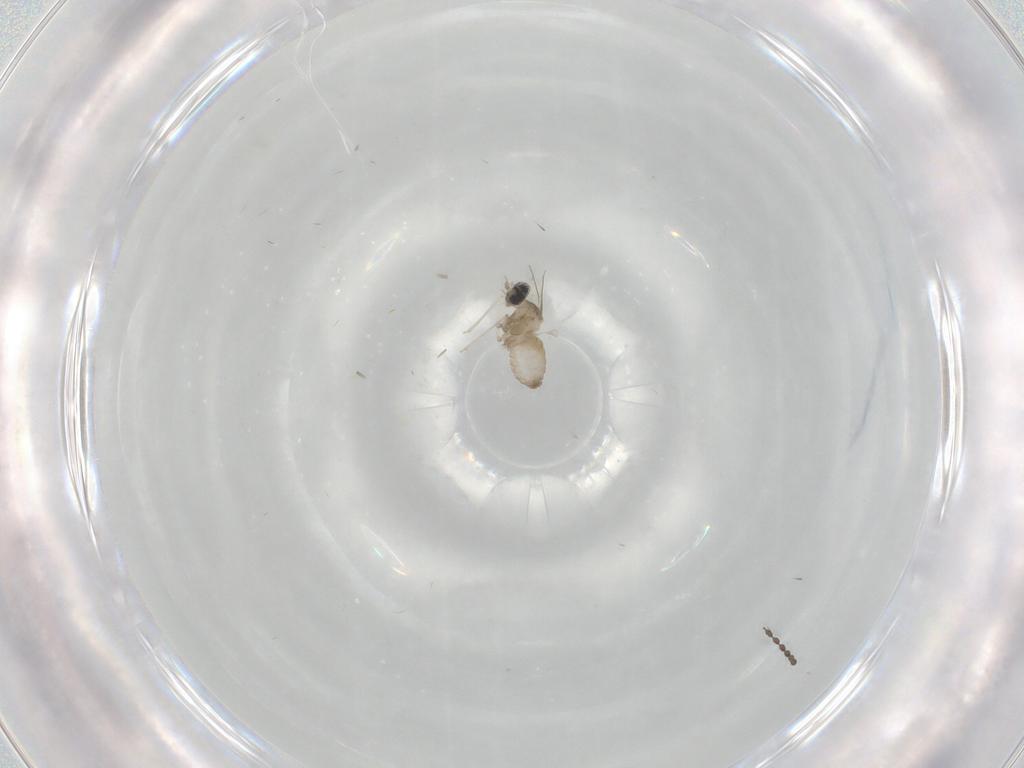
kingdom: Animalia
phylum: Arthropoda
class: Insecta
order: Diptera
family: Cecidomyiidae
